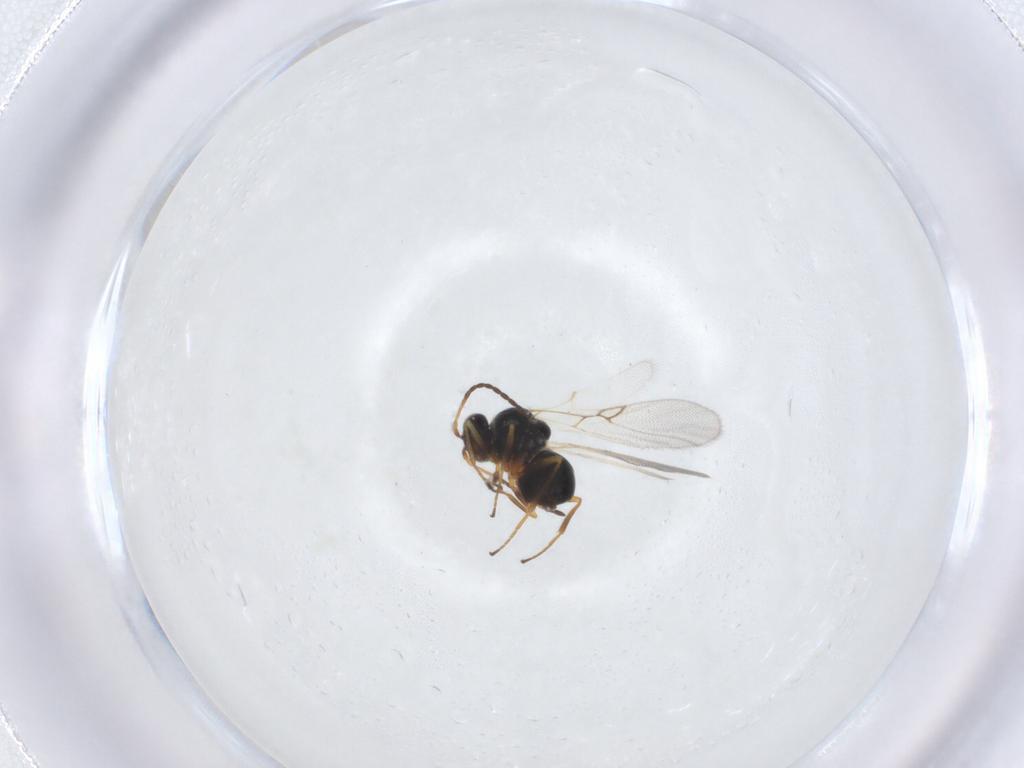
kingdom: Animalia
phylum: Arthropoda
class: Insecta
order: Hymenoptera
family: Figitidae
